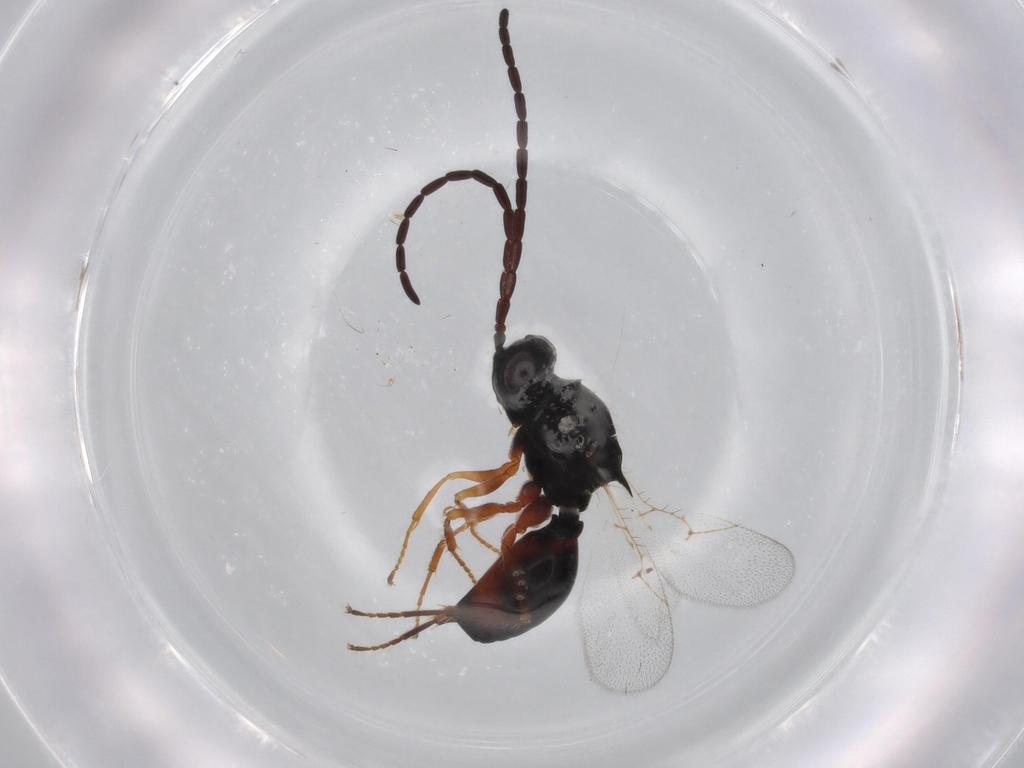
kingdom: Animalia
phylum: Arthropoda
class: Insecta
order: Hymenoptera
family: Figitidae
